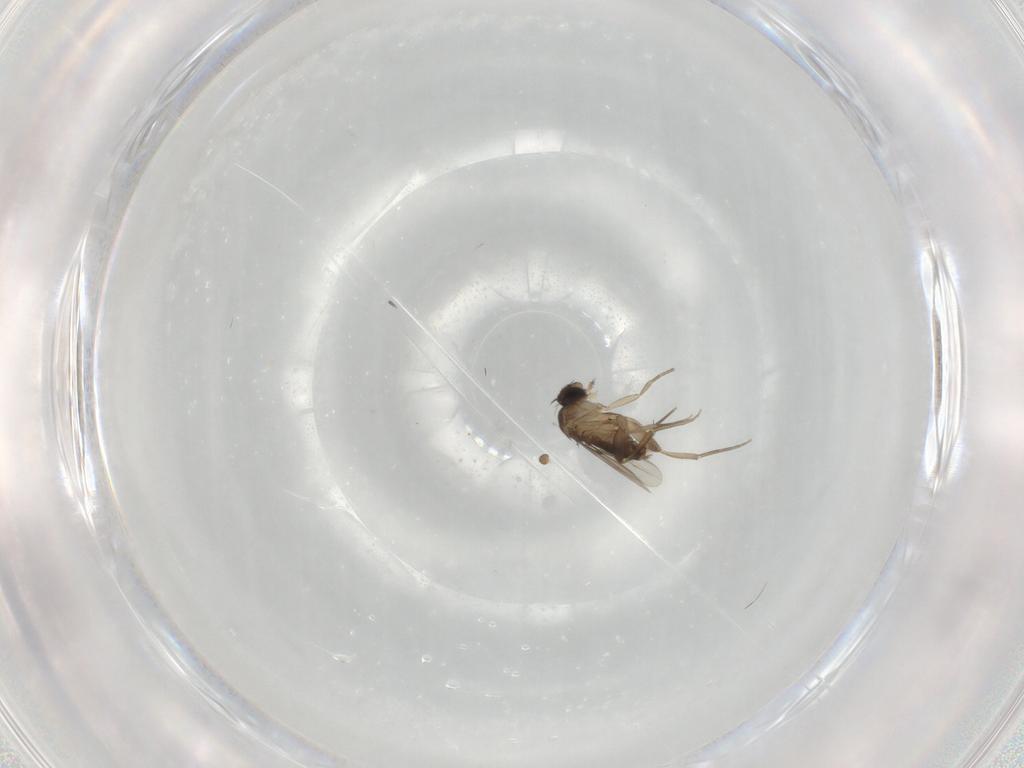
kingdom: Animalia
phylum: Arthropoda
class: Insecta
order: Diptera
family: Phoridae
